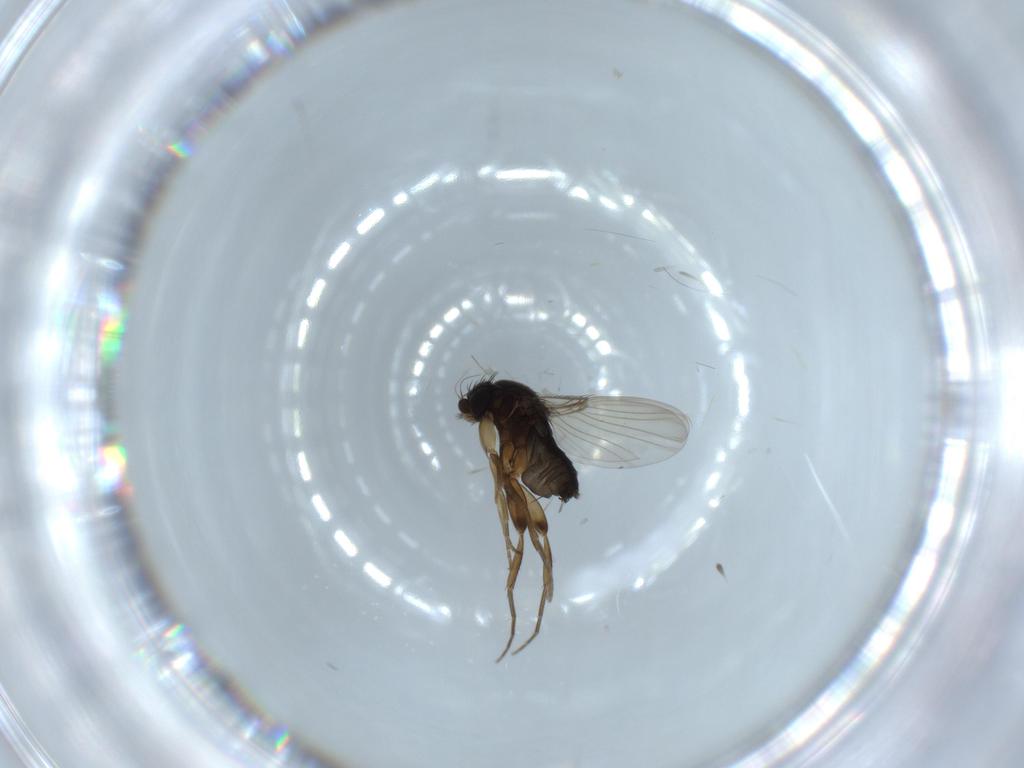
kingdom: Animalia
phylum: Arthropoda
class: Insecta
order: Diptera
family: Phoridae
